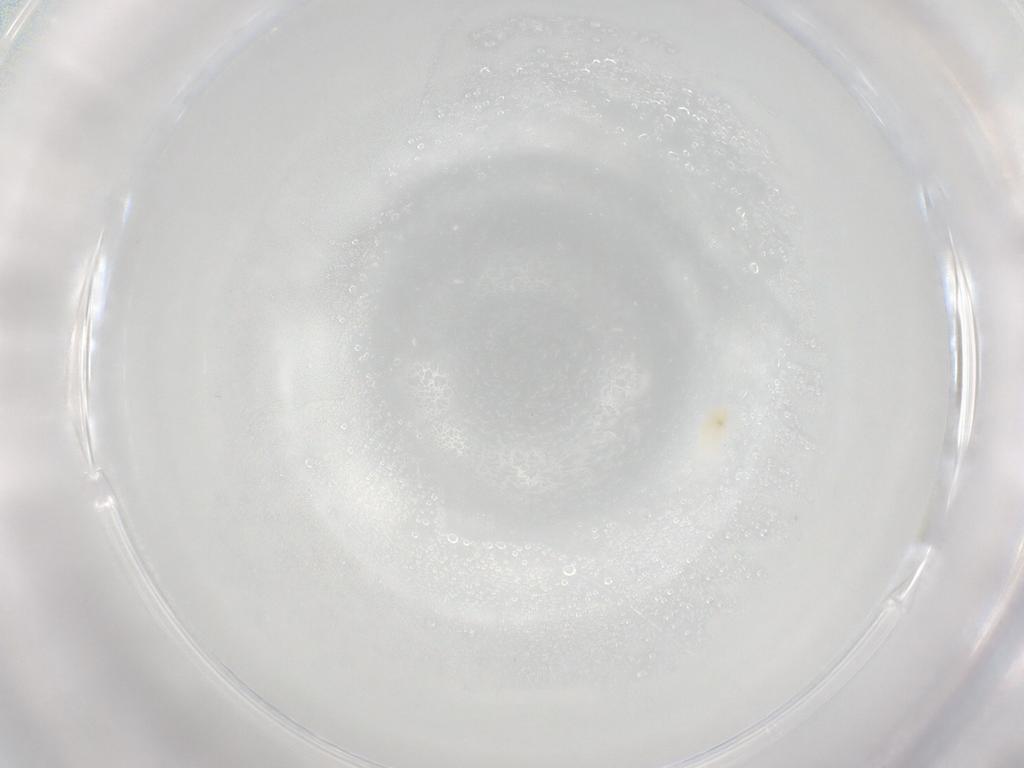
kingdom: Animalia
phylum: Arthropoda
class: Arachnida
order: Trombidiformes
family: Eupodidae
